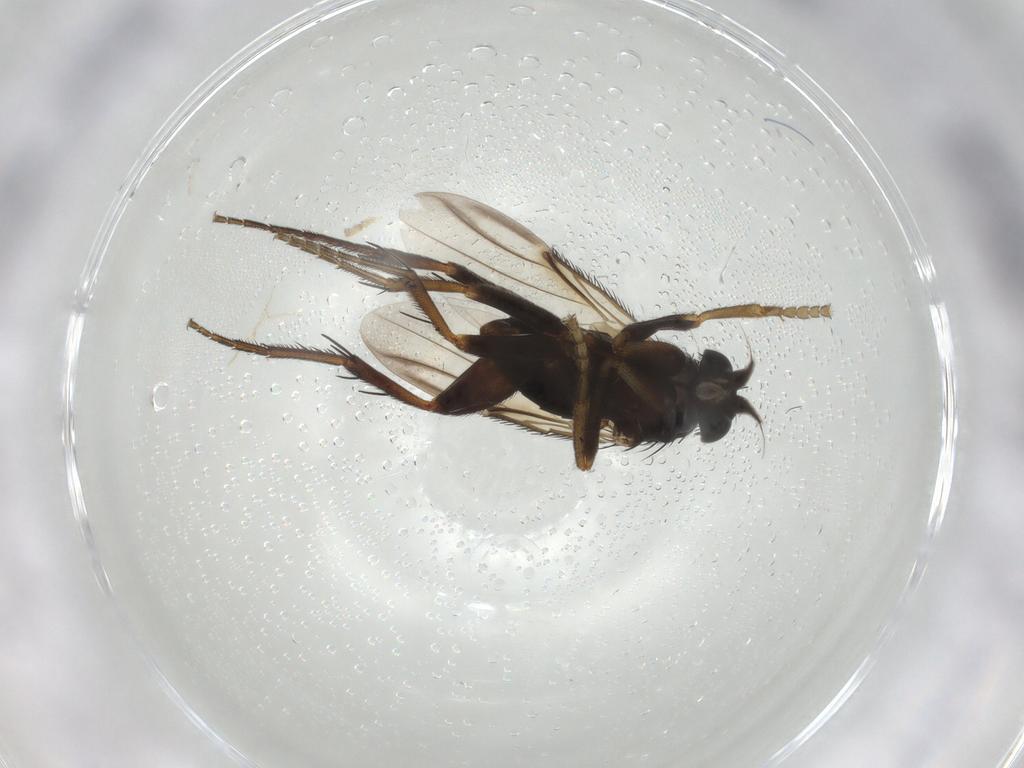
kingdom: Animalia
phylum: Arthropoda
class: Insecta
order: Diptera
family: Phoridae
